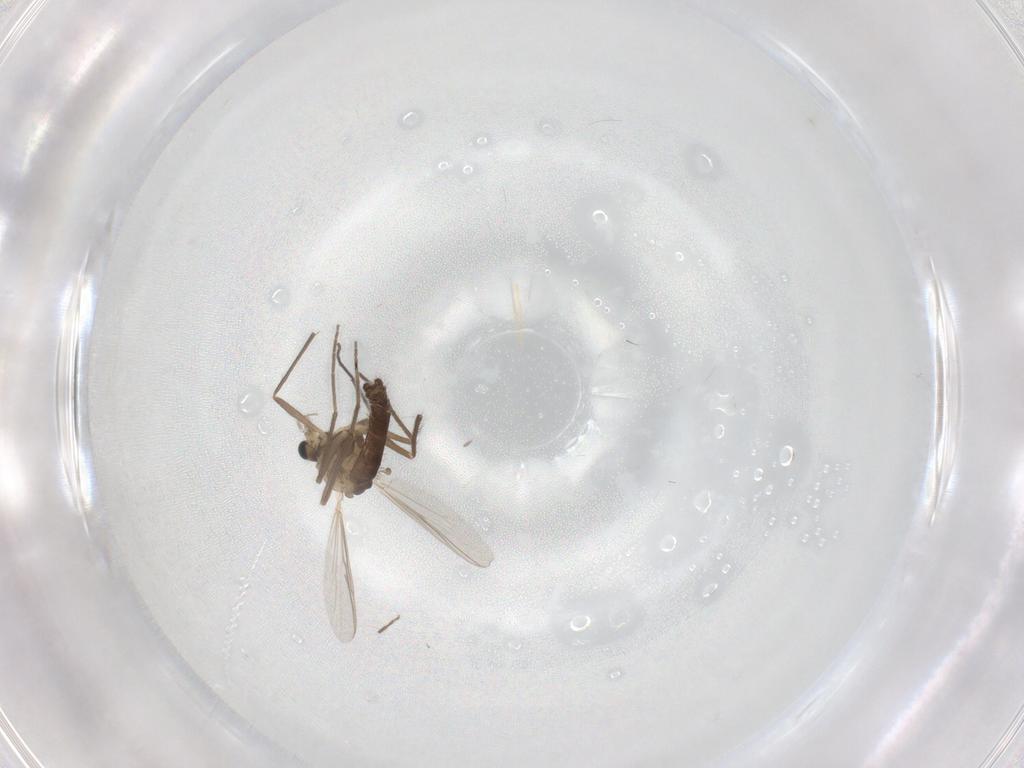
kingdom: Animalia
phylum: Arthropoda
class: Insecta
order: Diptera
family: Chironomidae
